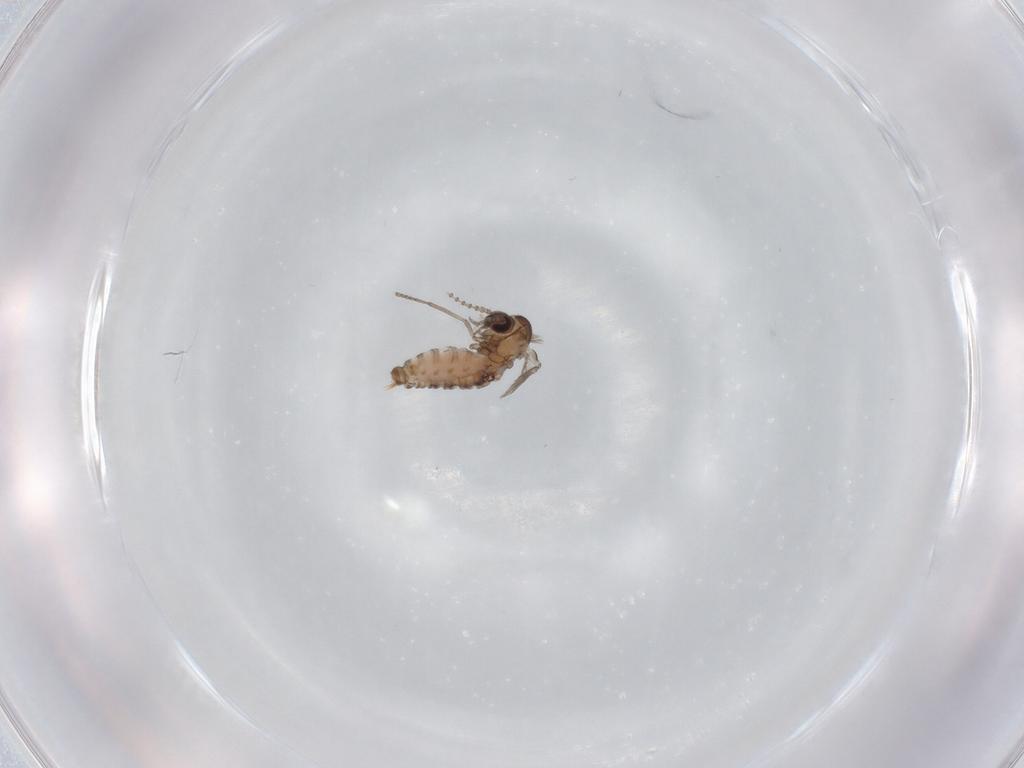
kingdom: Animalia
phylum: Arthropoda
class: Insecta
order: Diptera
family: Psychodidae
